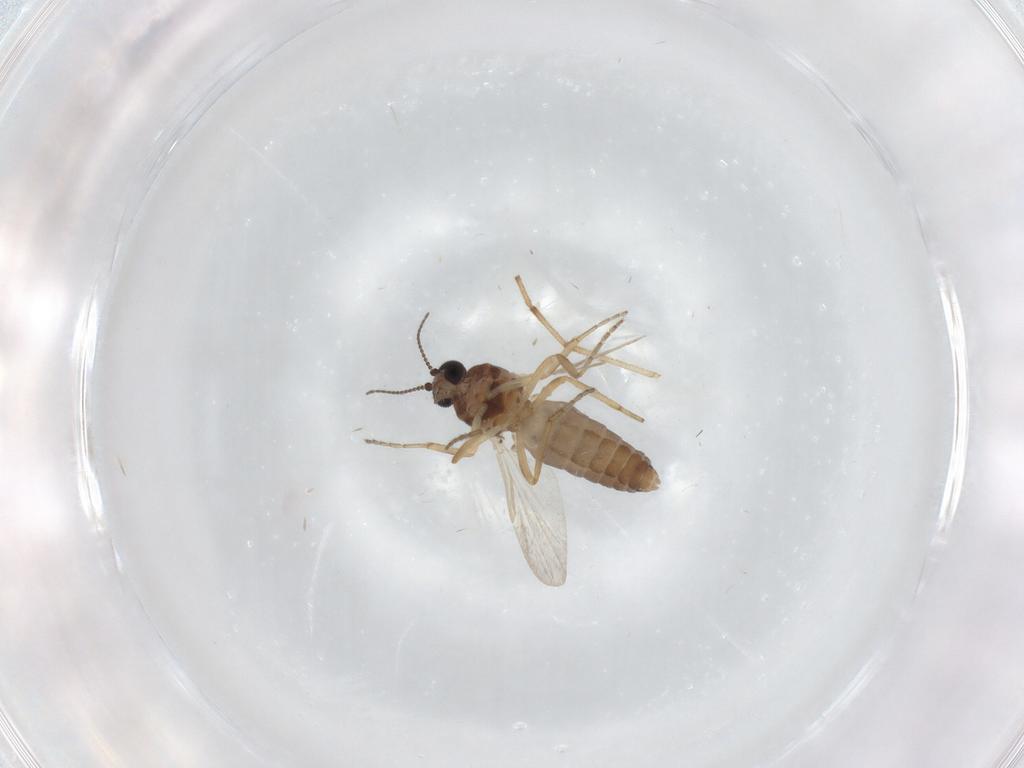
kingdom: Animalia
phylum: Arthropoda
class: Insecta
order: Diptera
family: Ceratopogonidae
